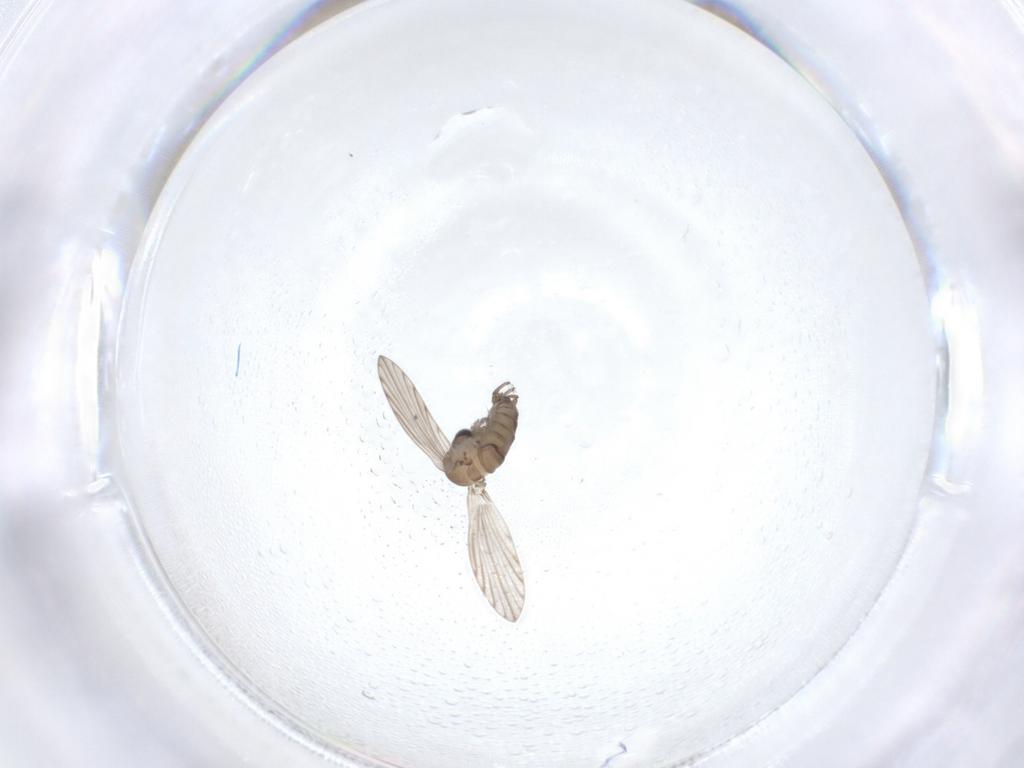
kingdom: Animalia
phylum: Arthropoda
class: Insecta
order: Diptera
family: Psychodidae
